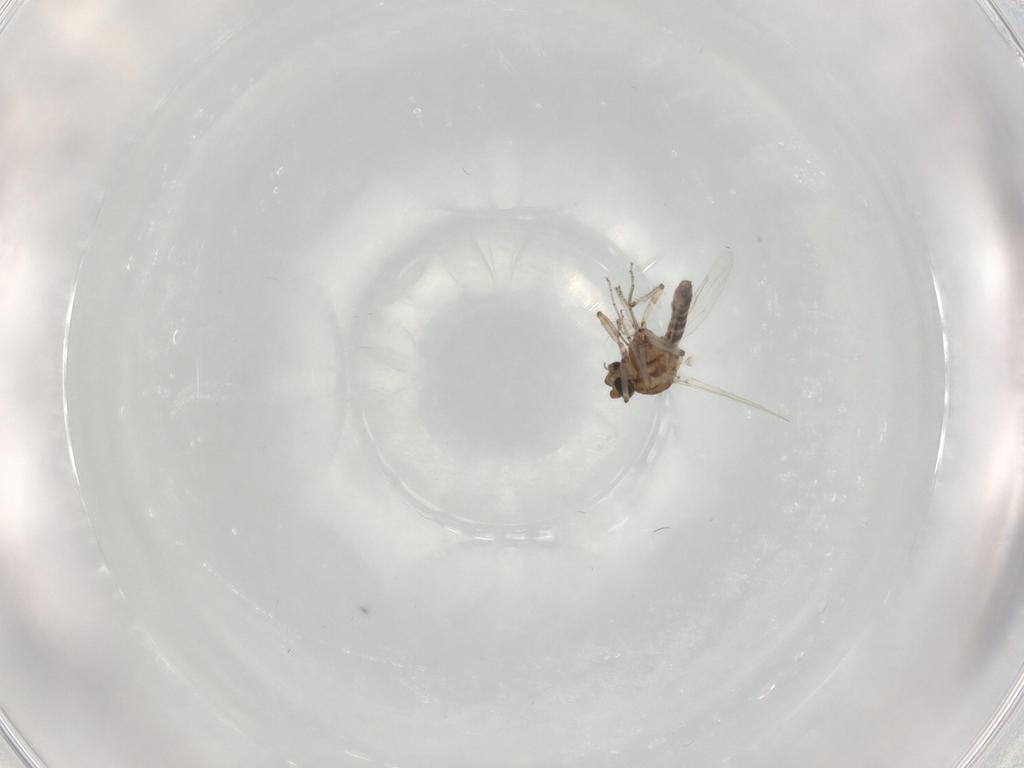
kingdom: Animalia
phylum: Arthropoda
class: Insecta
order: Diptera
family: Ceratopogonidae
